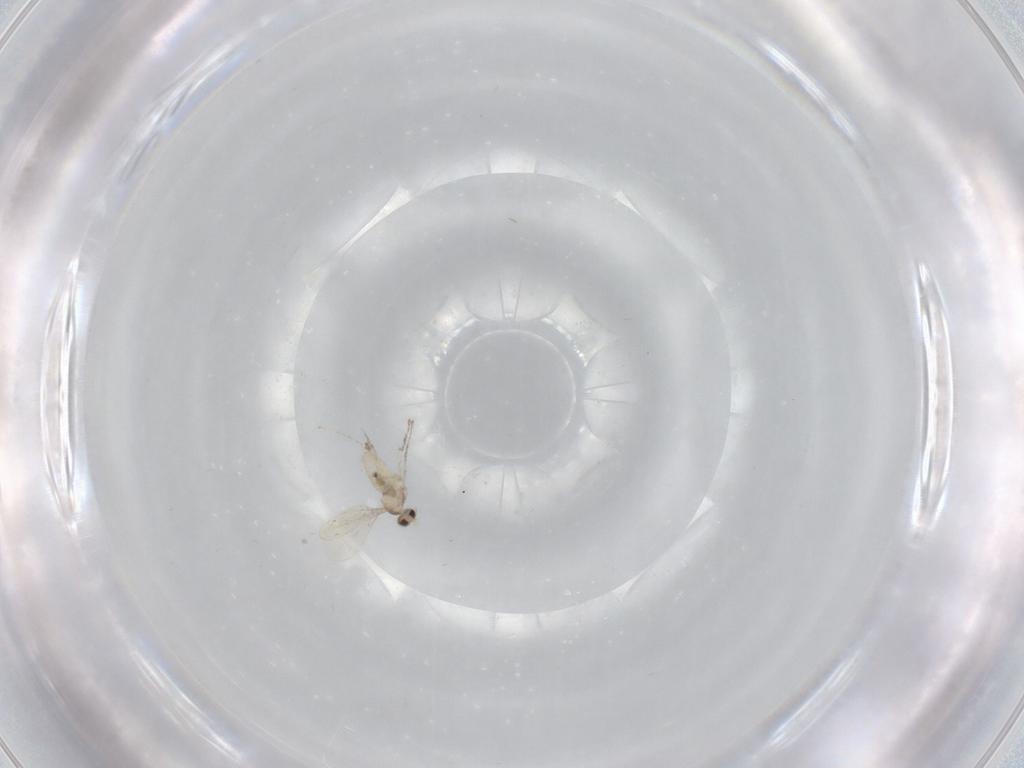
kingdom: Animalia
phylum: Arthropoda
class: Insecta
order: Diptera
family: Cecidomyiidae
